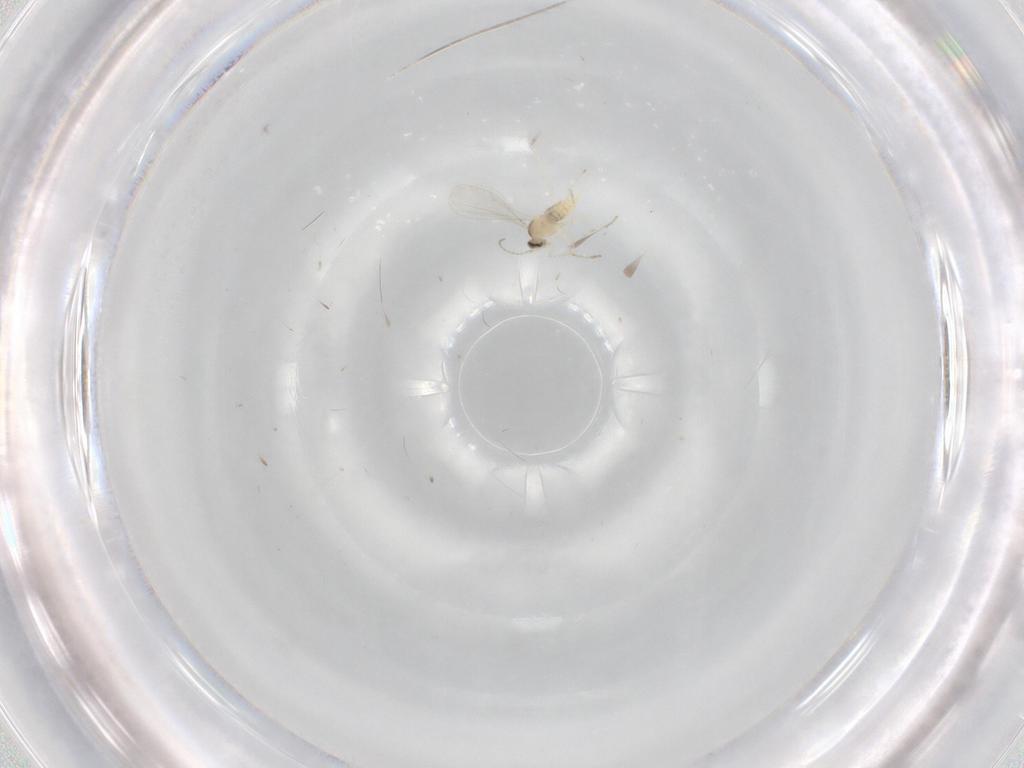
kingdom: Animalia
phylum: Arthropoda
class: Insecta
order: Diptera
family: Cecidomyiidae
